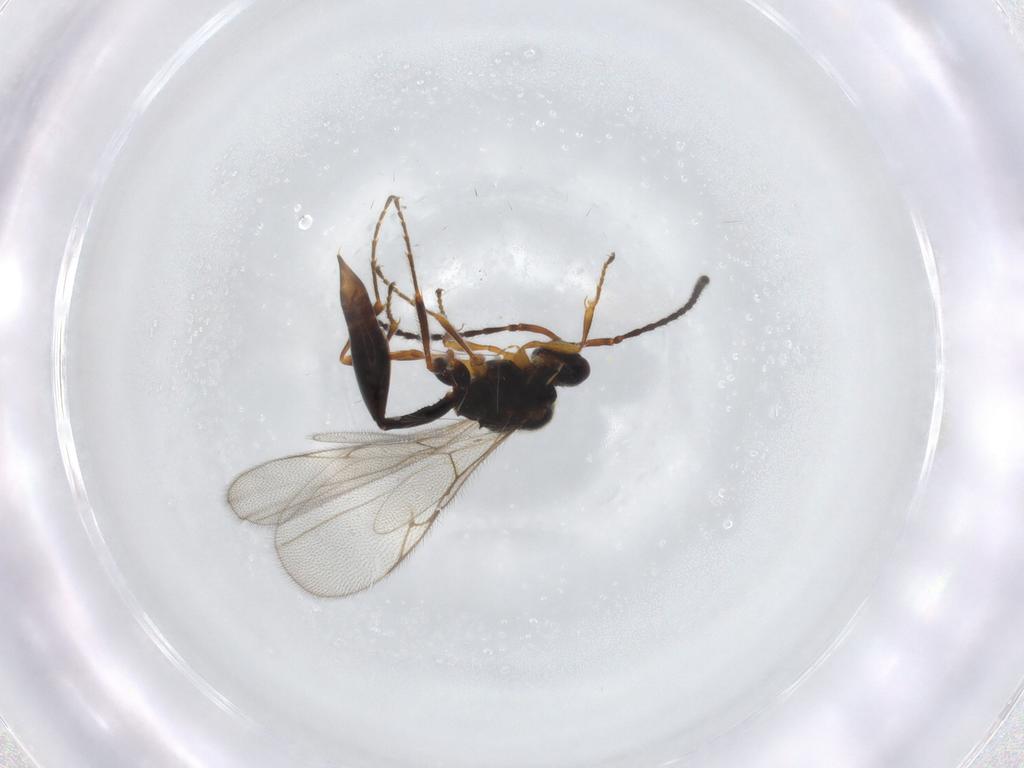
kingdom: Animalia
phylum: Arthropoda
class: Insecta
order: Hymenoptera
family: Diapriidae
